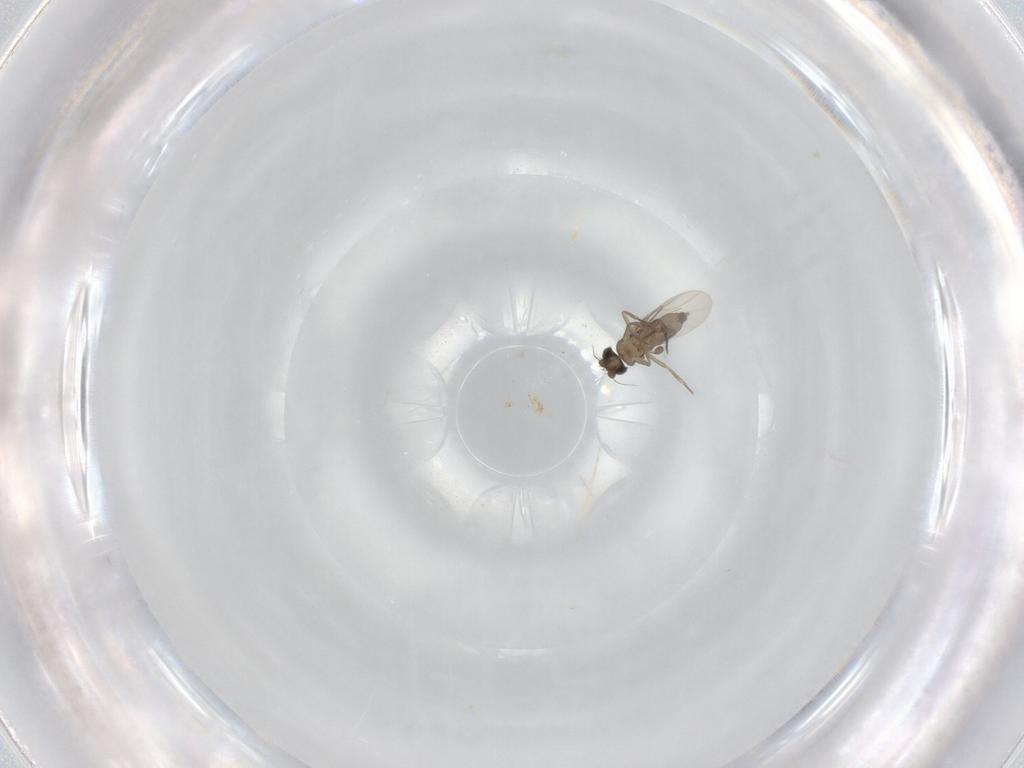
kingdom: Animalia
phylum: Arthropoda
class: Insecta
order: Diptera
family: Phoridae
